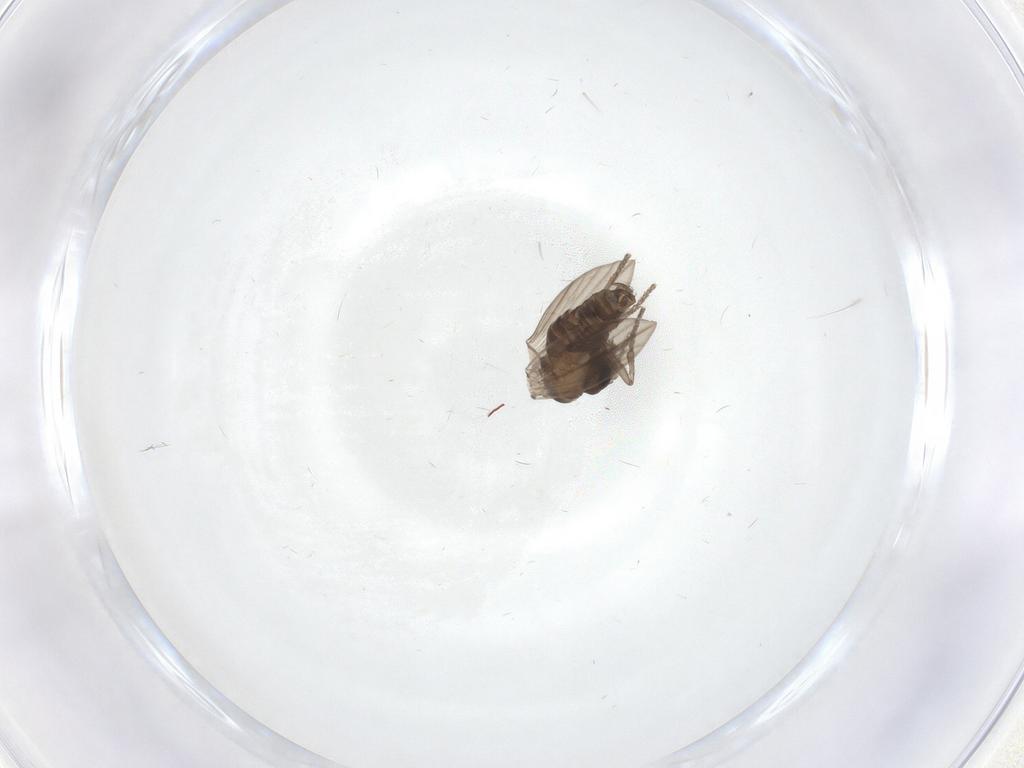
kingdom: Animalia
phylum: Arthropoda
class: Insecta
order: Diptera
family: Psychodidae
